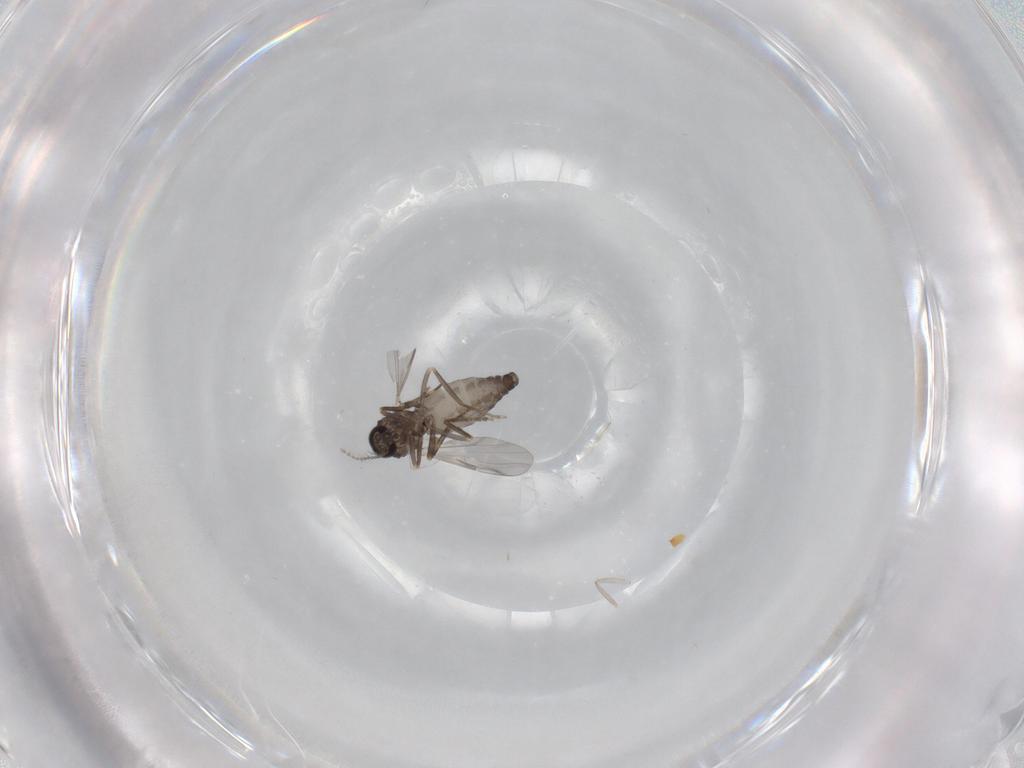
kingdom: Animalia
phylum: Arthropoda
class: Insecta
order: Diptera
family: Ceratopogonidae
